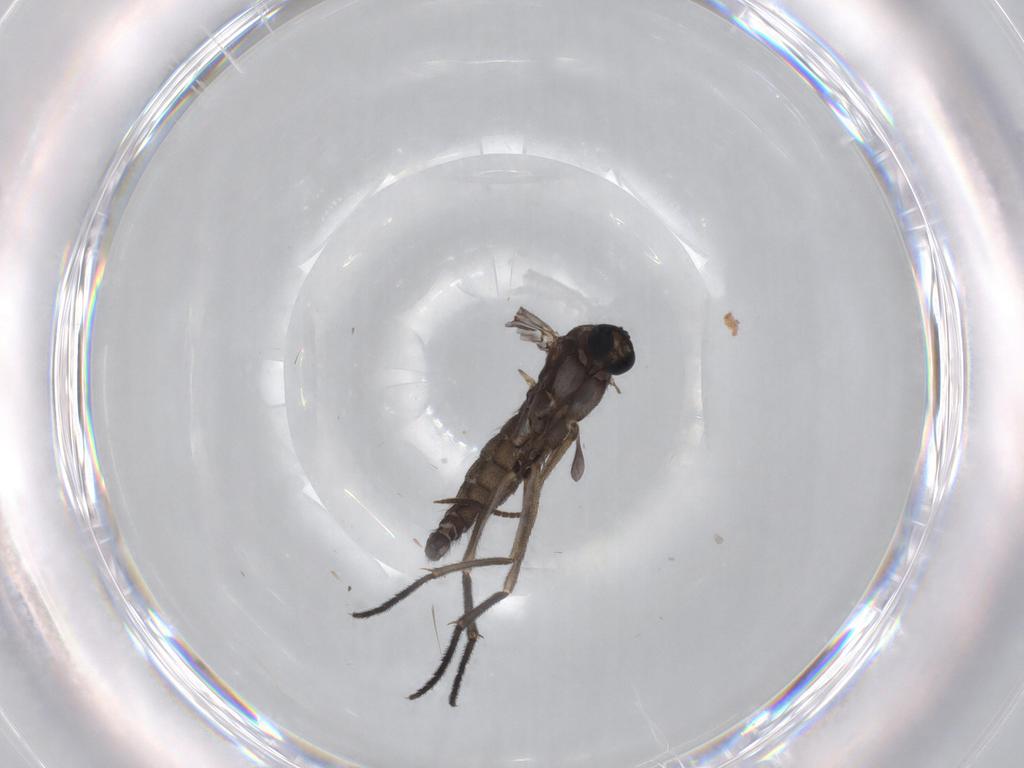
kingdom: Animalia
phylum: Arthropoda
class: Insecta
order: Diptera
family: Sciaridae
